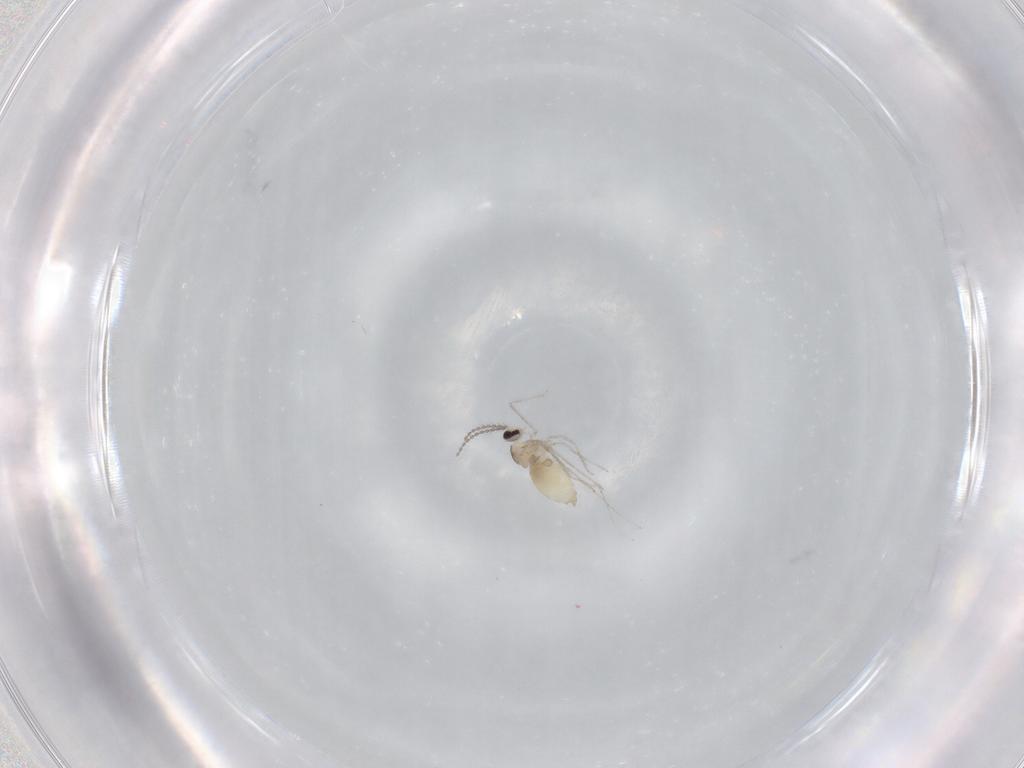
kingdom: Animalia
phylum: Arthropoda
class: Insecta
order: Diptera
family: Cecidomyiidae
